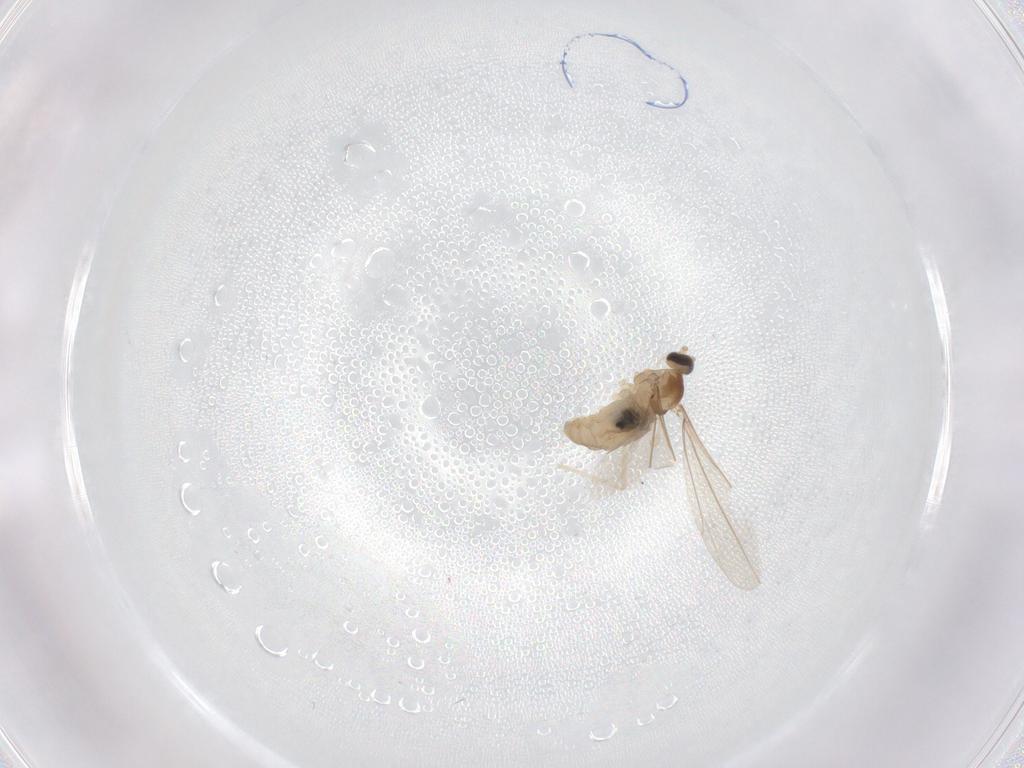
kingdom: Animalia
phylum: Arthropoda
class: Insecta
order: Diptera
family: Cecidomyiidae
